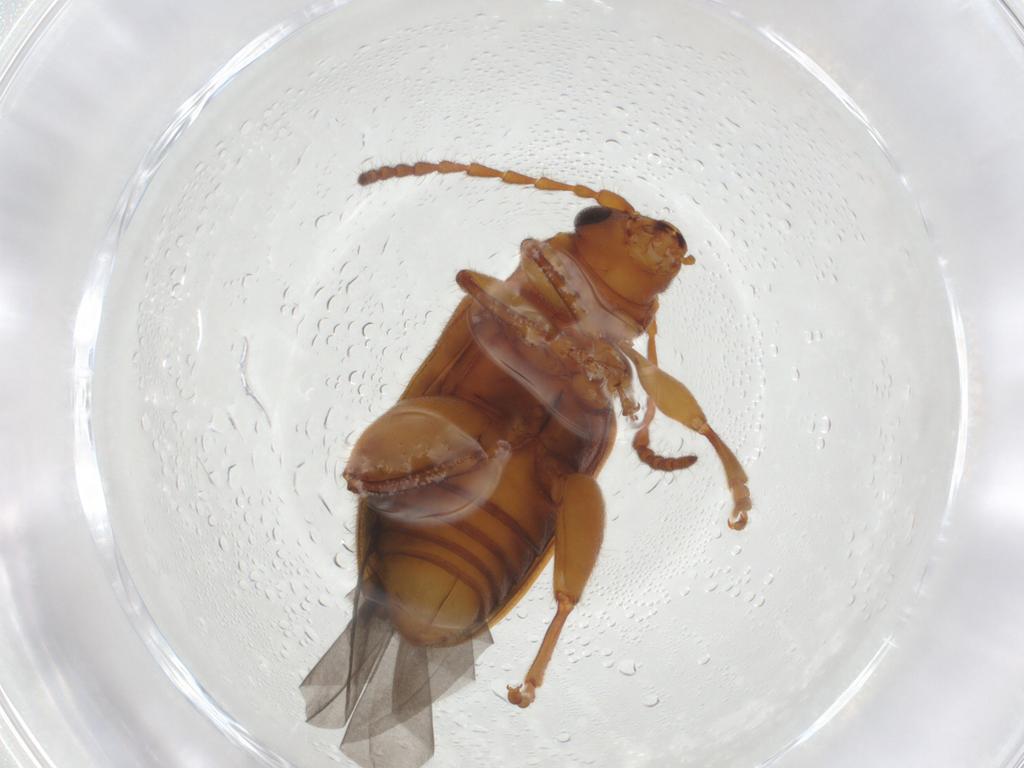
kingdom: Animalia
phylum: Arthropoda
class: Insecta
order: Coleoptera
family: Chrysomelidae
